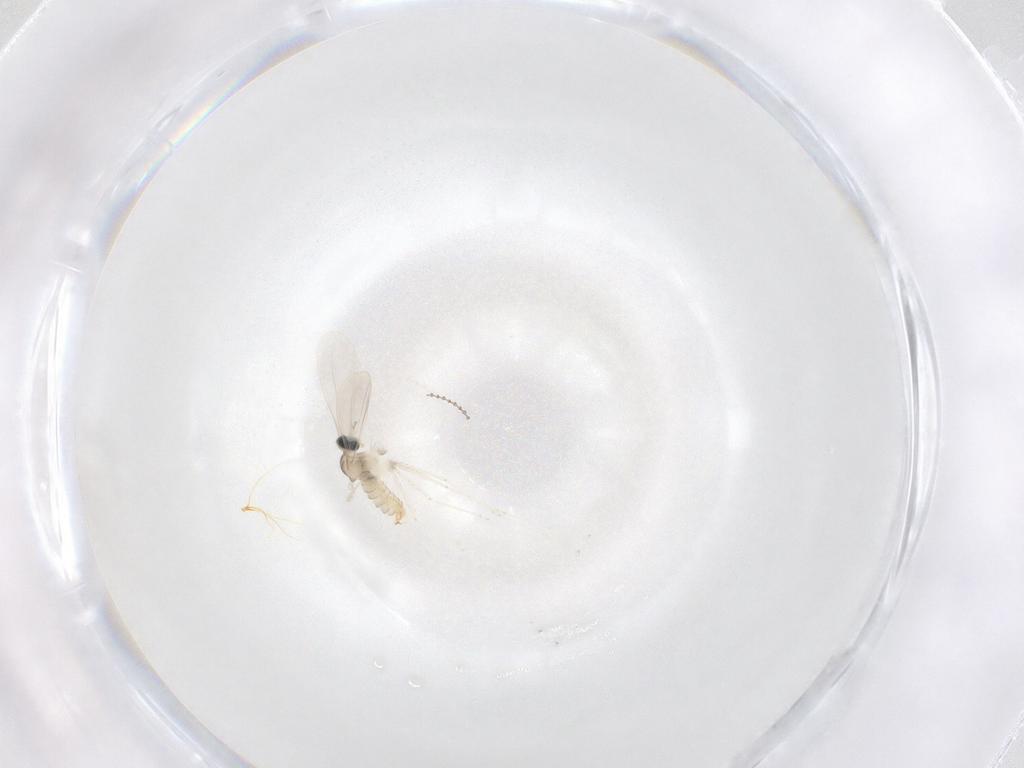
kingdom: Animalia
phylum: Arthropoda
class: Insecta
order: Diptera
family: Cecidomyiidae
